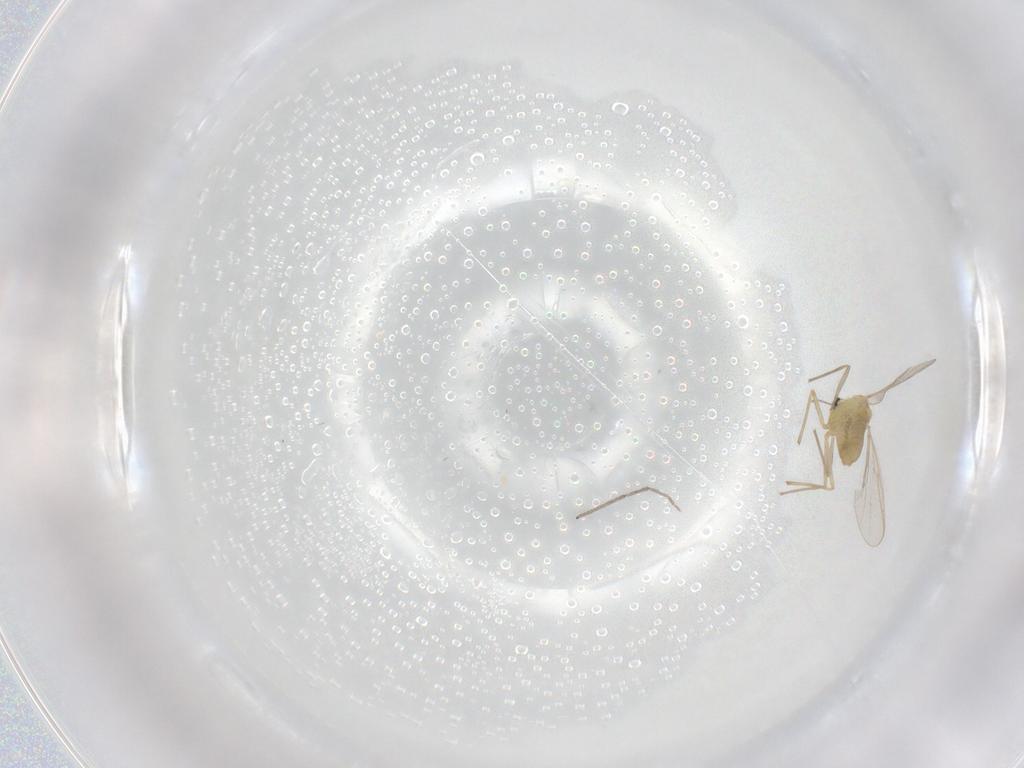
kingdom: Animalia
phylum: Arthropoda
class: Insecta
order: Diptera
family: Chironomidae
